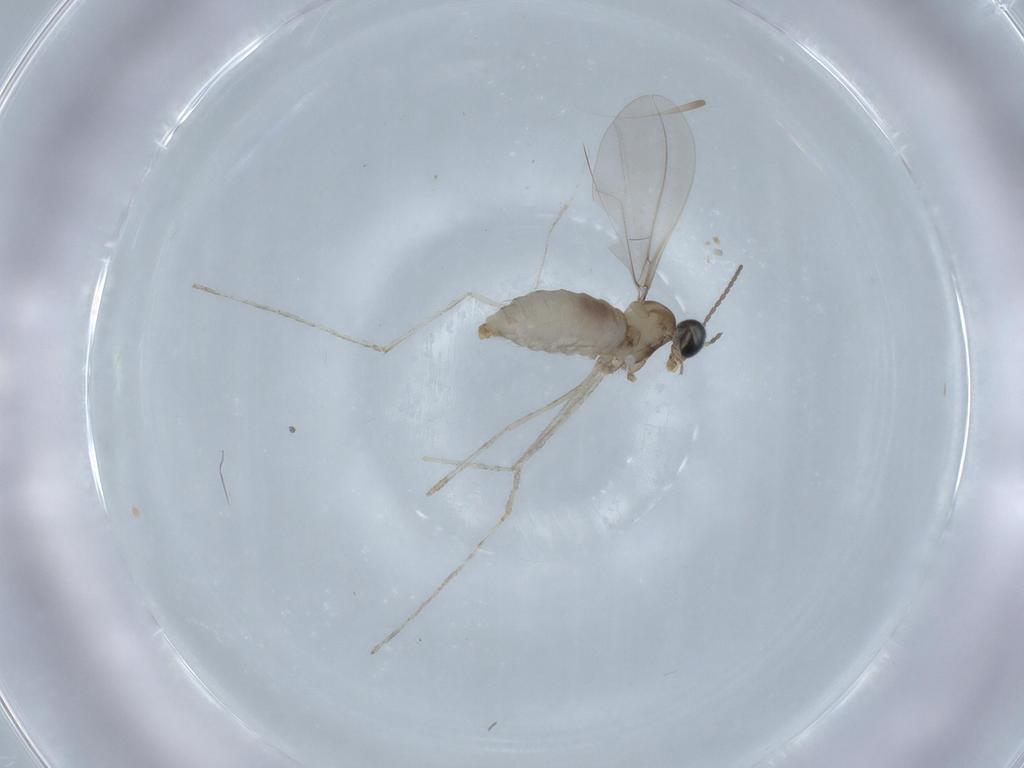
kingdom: Animalia
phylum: Arthropoda
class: Insecta
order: Diptera
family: Cecidomyiidae
